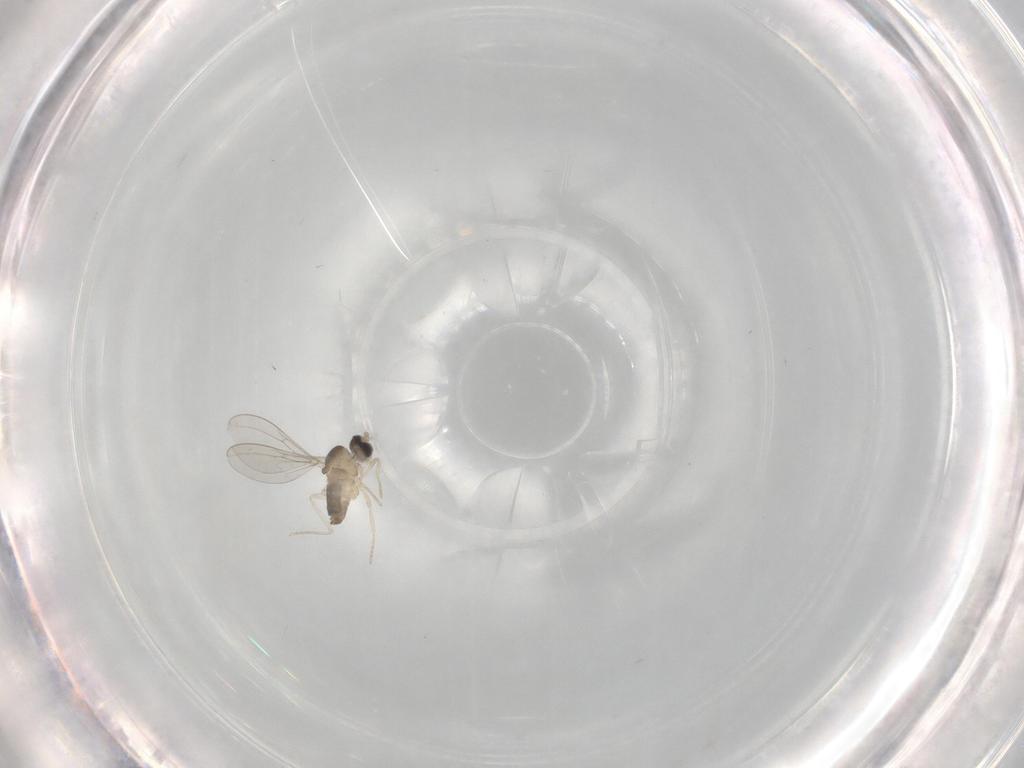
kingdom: Animalia
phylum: Arthropoda
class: Insecta
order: Diptera
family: Cecidomyiidae
